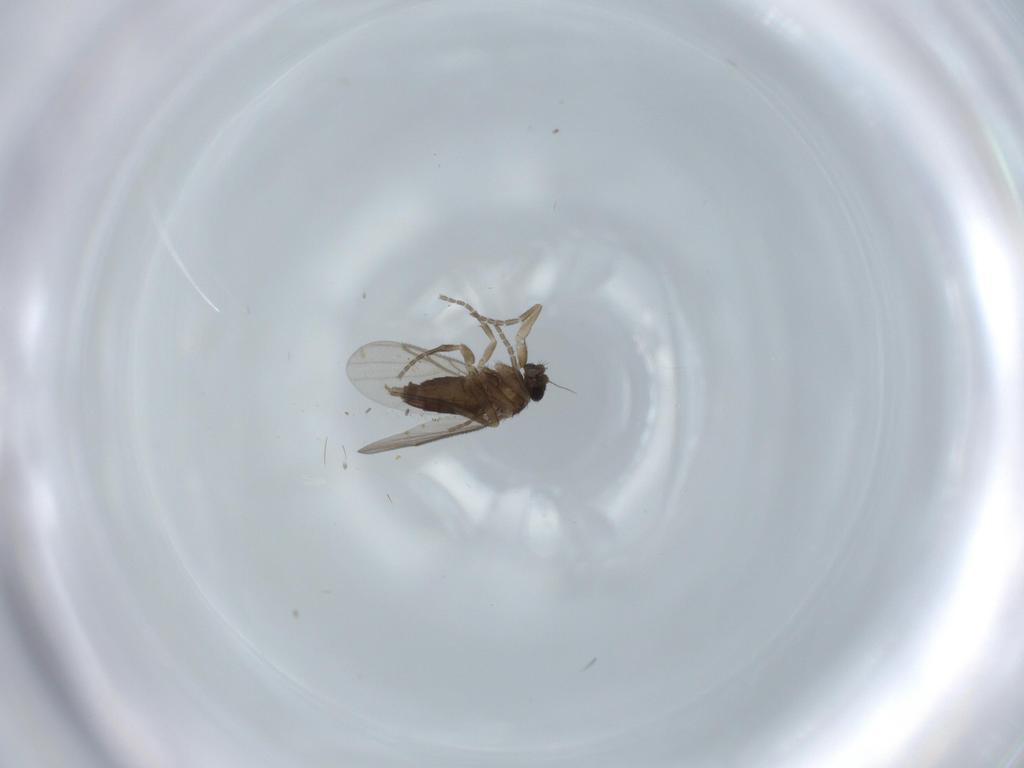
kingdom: Animalia
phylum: Arthropoda
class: Insecta
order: Diptera
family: Cecidomyiidae
